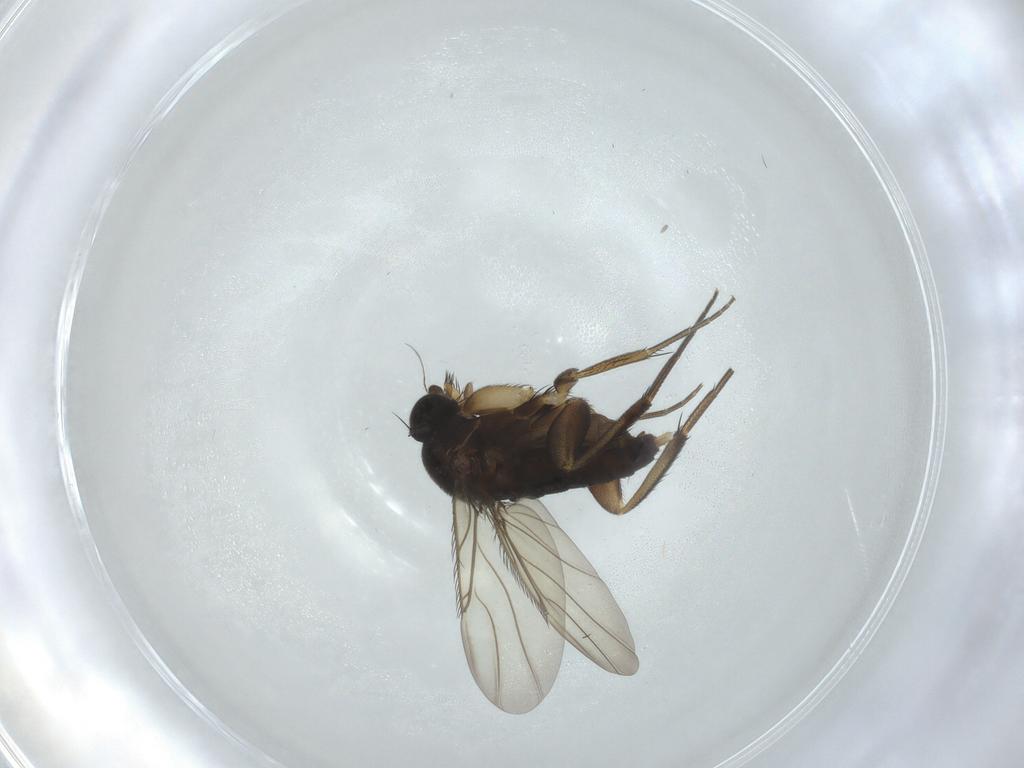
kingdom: Animalia
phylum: Arthropoda
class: Insecta
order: Diptera
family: Phoridae
